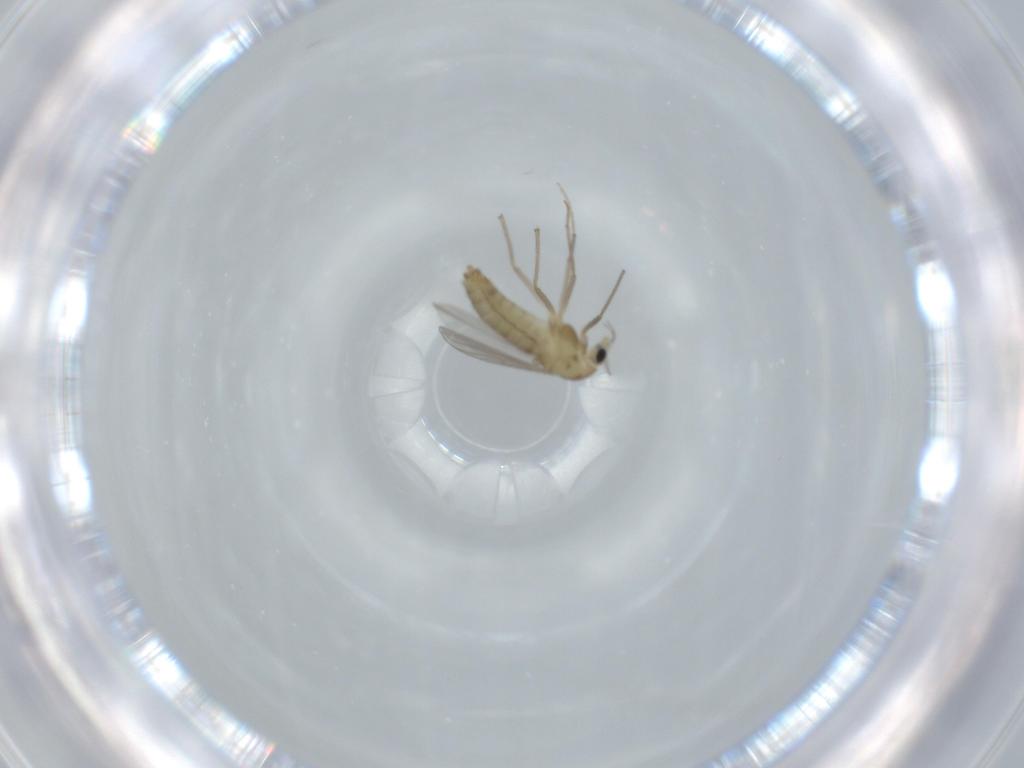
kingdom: Animalia
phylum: Arthropoda
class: Insecta
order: Diptera
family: Chironomidae
